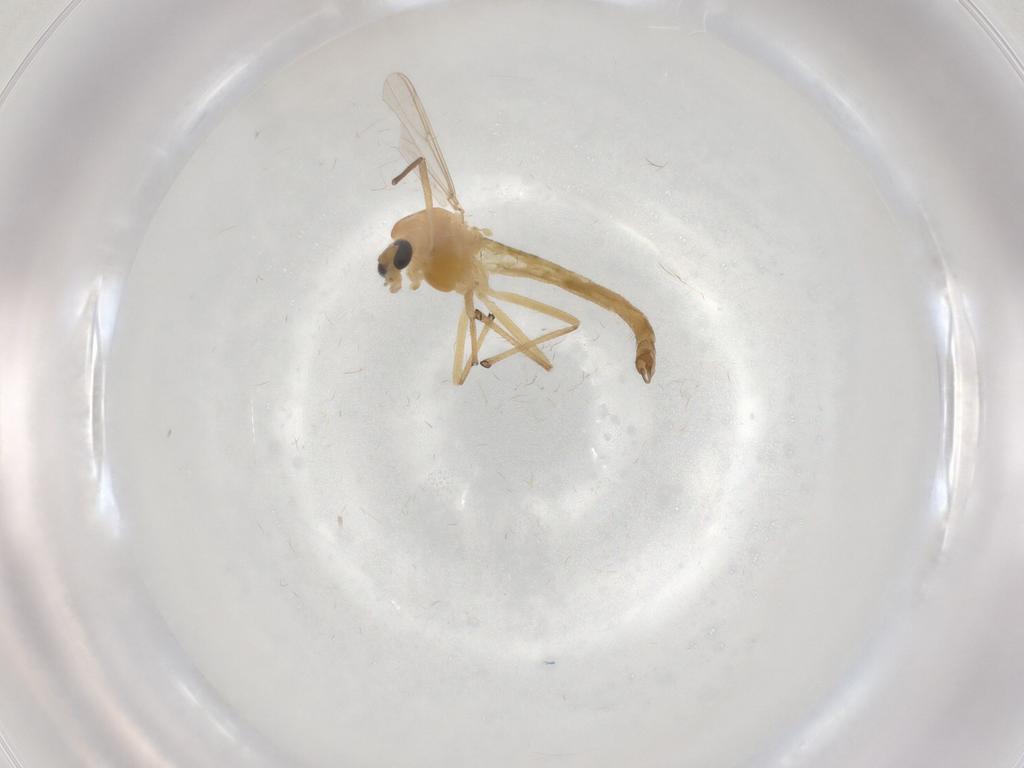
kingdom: Animalia
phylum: Arthropoda
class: Insecta
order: Diptera
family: Chironomidae
